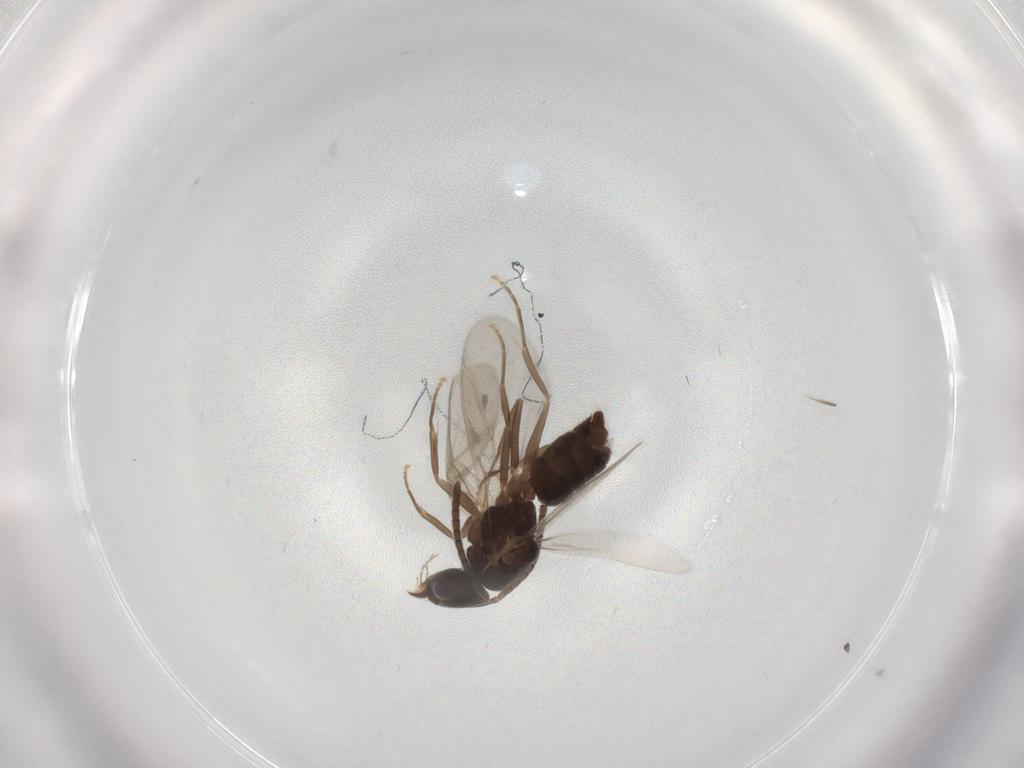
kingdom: Animalia
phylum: Arthropoda
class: Insecta
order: Hymenoptera
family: Formicidae
